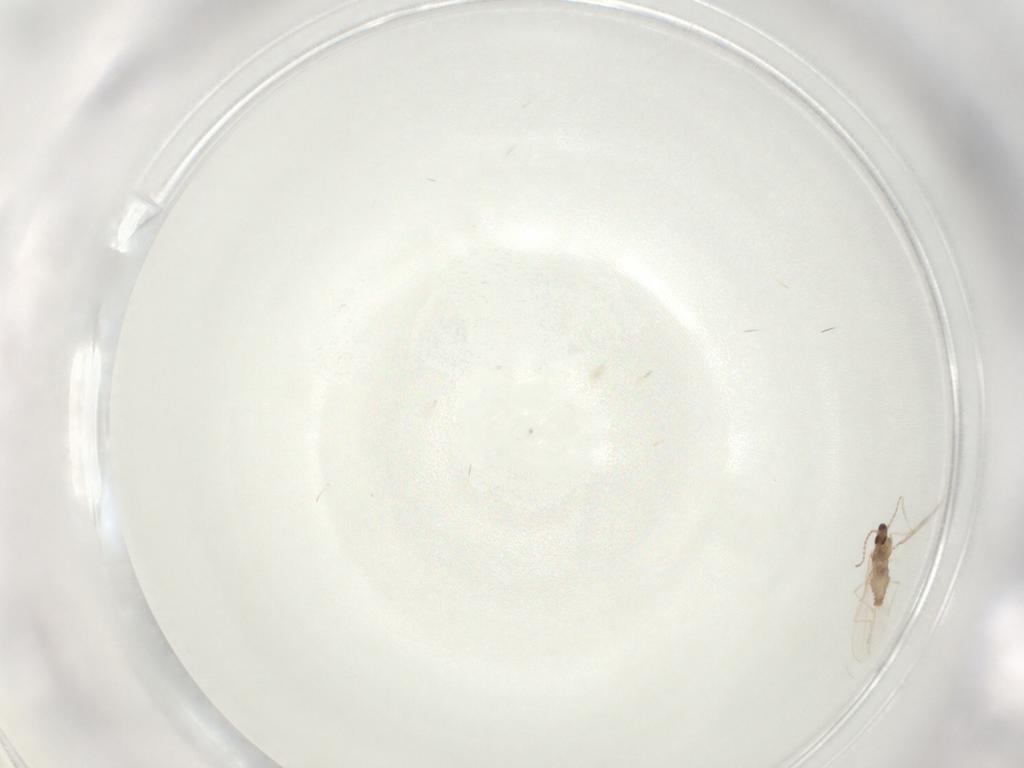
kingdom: Animalia
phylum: Arthropoda
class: Insecta
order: Diptera
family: Cecidomyiidae
